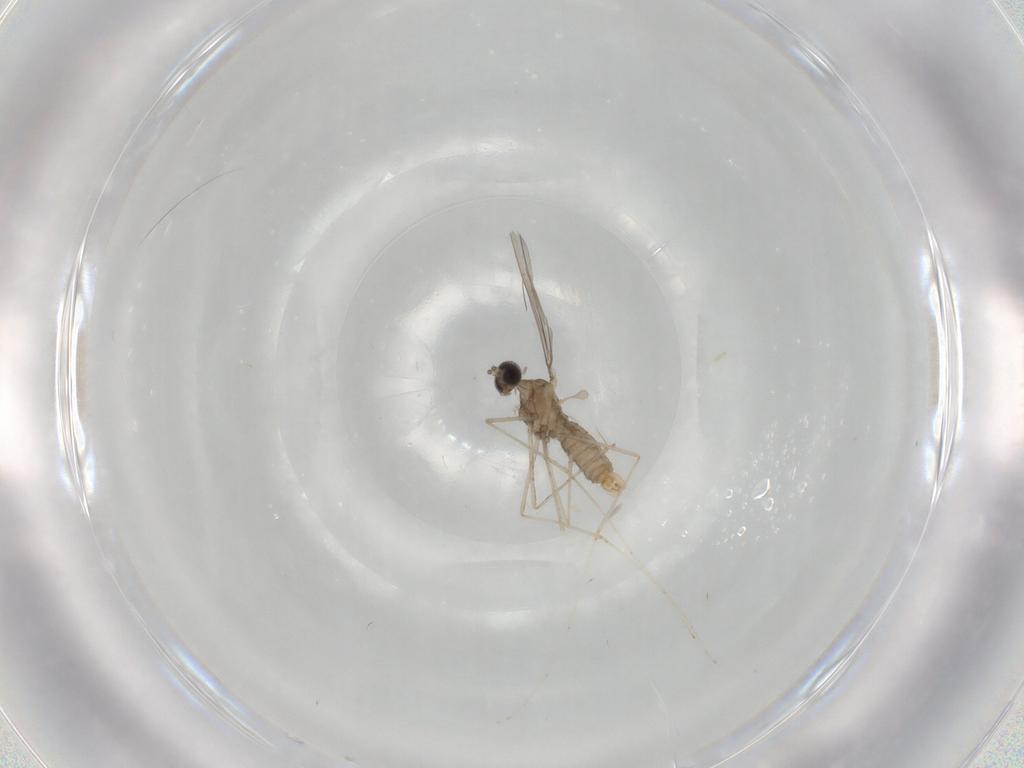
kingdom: Animalia
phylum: Arthropoda
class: Insecta
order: Diptera
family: Cecidomyiidae
